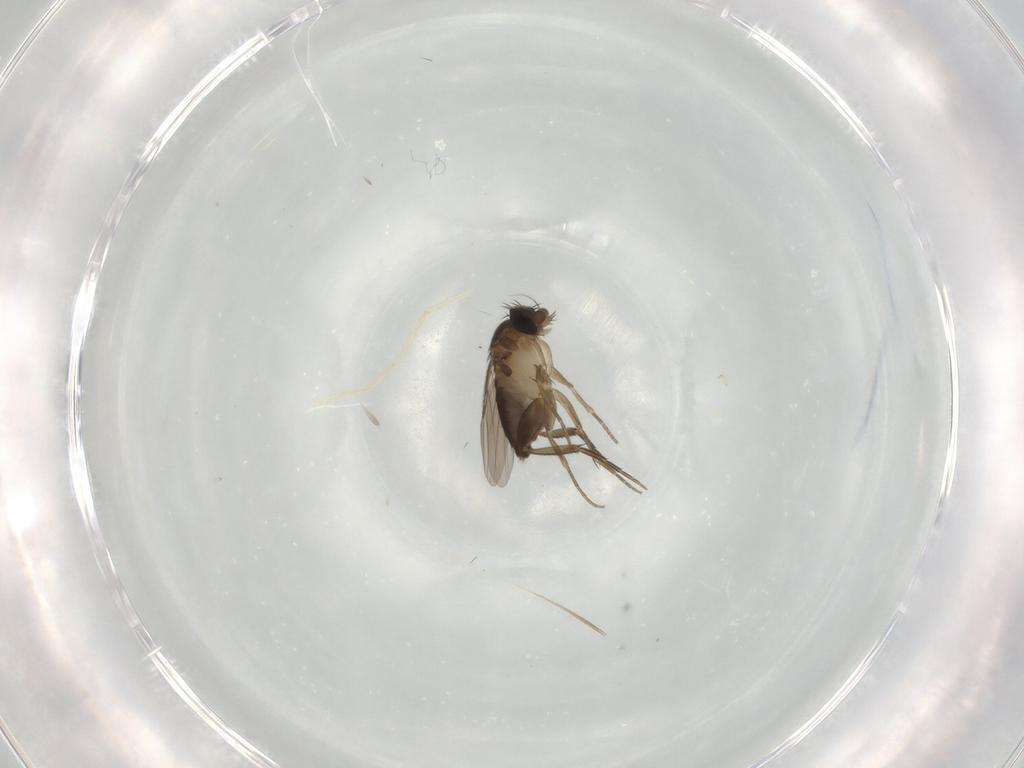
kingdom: Animalia
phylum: Arthropoda
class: Insecta
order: Diptera
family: Phoridae
